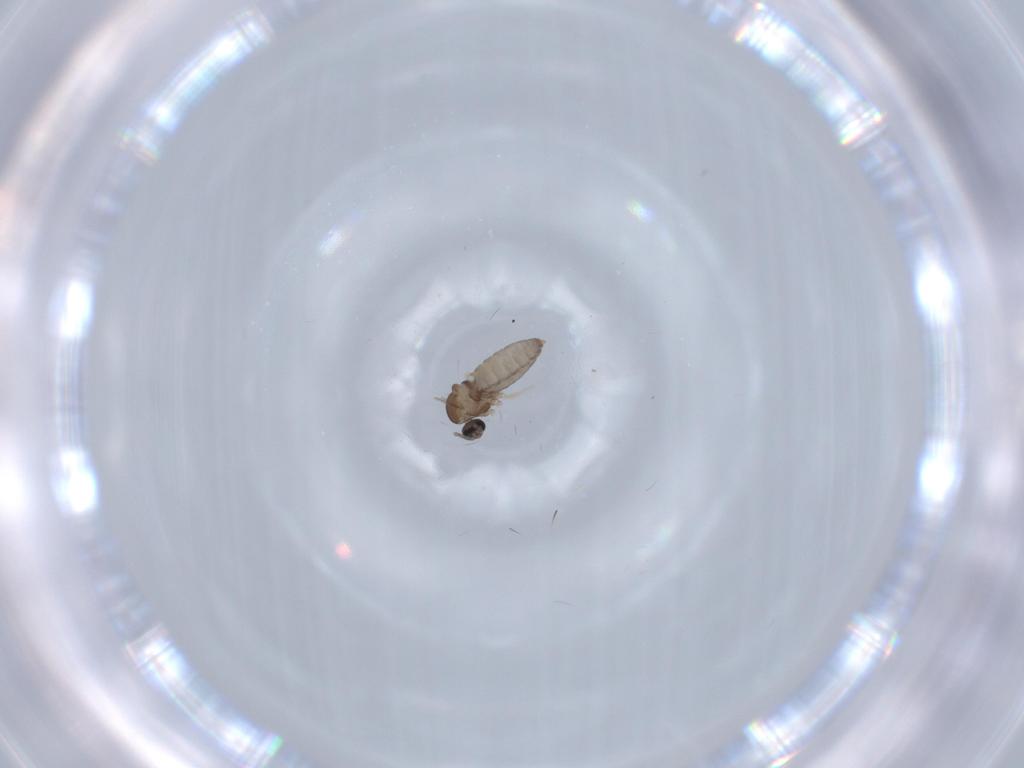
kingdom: Animalia
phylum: Arthropoda
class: Insecta
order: Diptera
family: Cecidomyiidae
